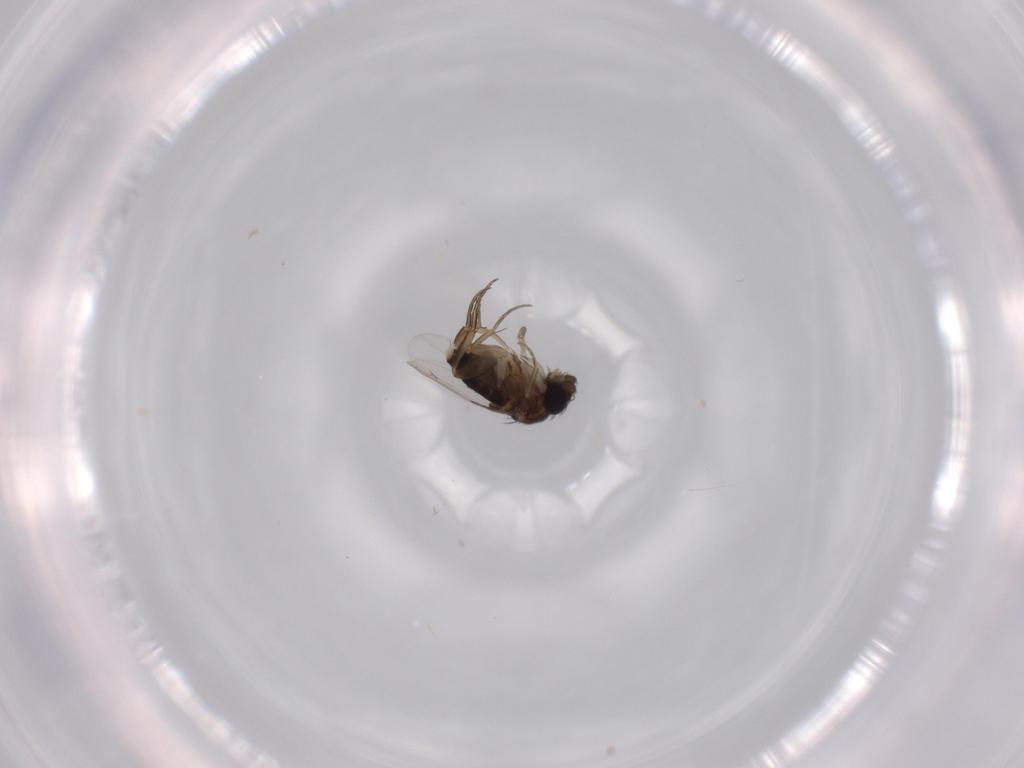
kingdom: Animalia
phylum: Arthropoda
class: Insecta
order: Diptera
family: Phoridae
